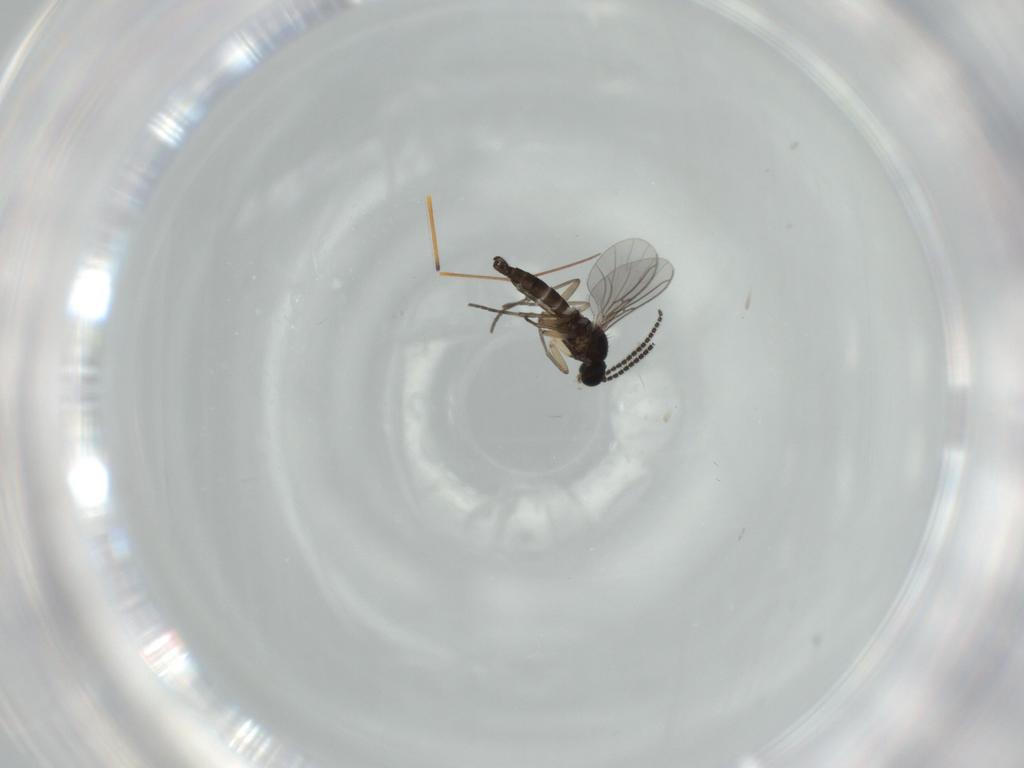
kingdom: Animalia
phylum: Arthropoda
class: Insecta
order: Diptera
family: Sciaridae
